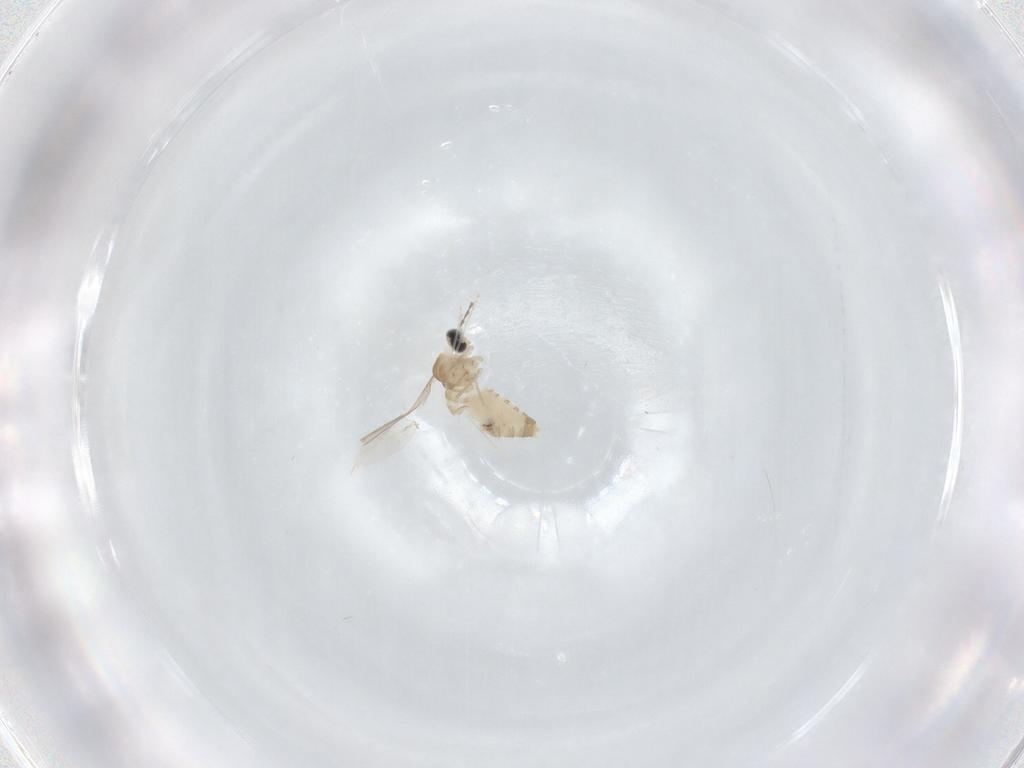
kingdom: Animalia
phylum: Arthropoda
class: Insecta
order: Diptera
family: Cecidomyiidae
